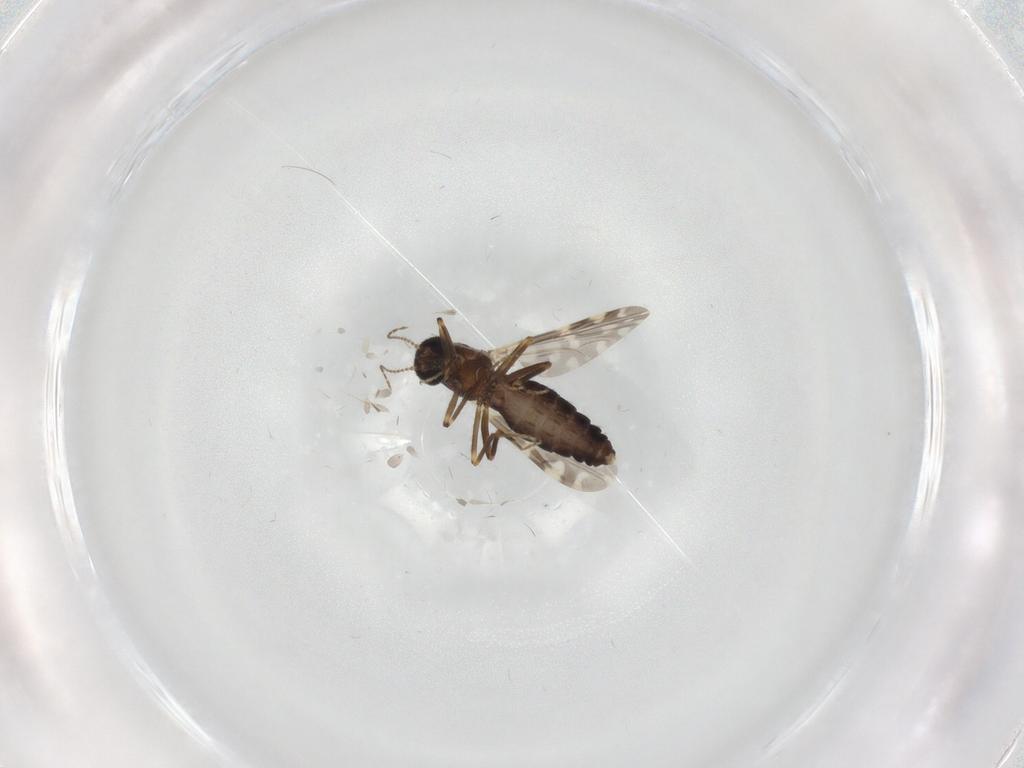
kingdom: Animalia
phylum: Arthropoda
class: Insecta
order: Diptera
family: Ceratopogonidae
